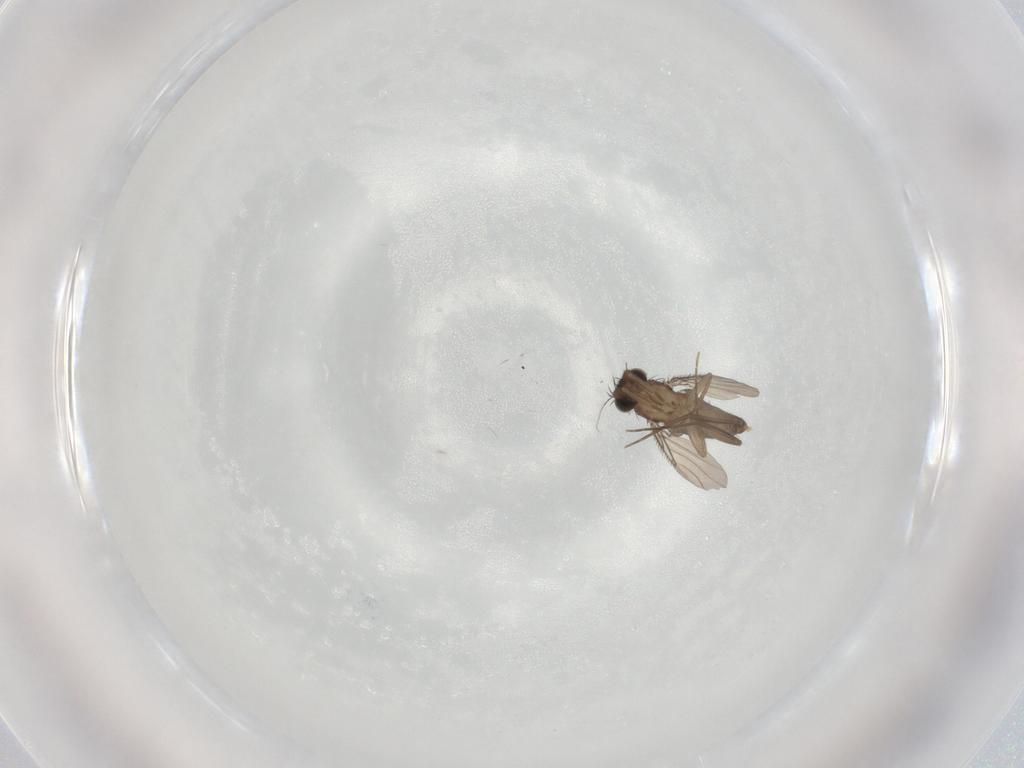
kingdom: Animalia
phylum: Arthropoda
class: Insecta
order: Diptera
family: Phoridae
